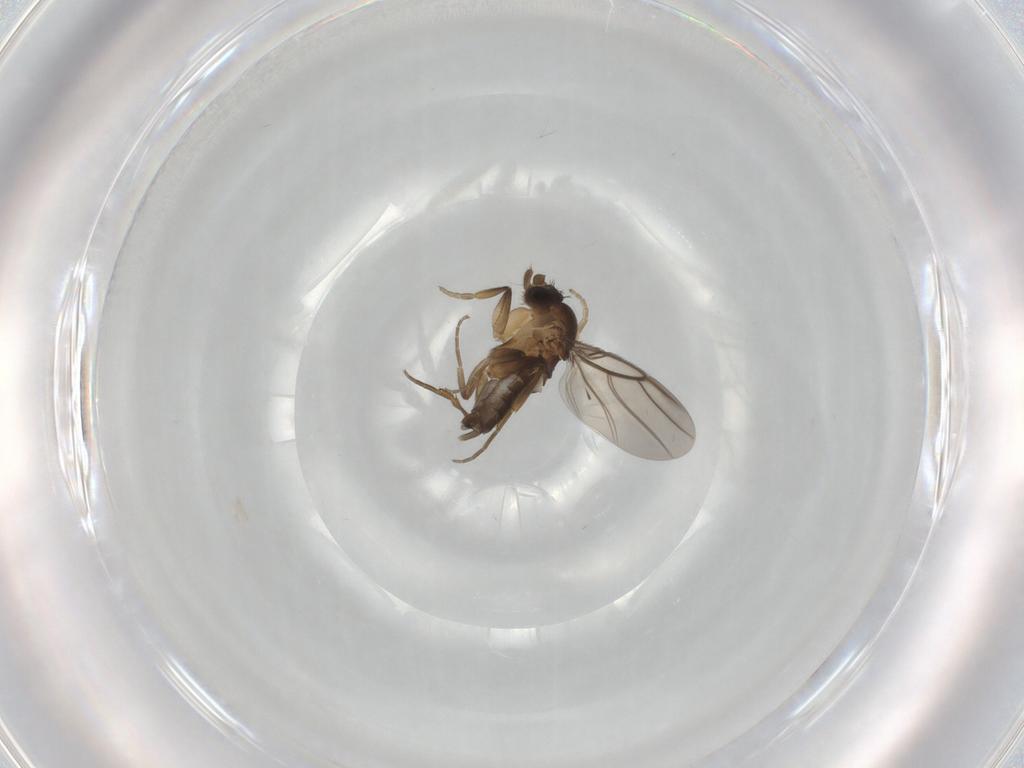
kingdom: Animalia
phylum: Arthropoda
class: Insecta
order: Diptera
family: Phoridae
